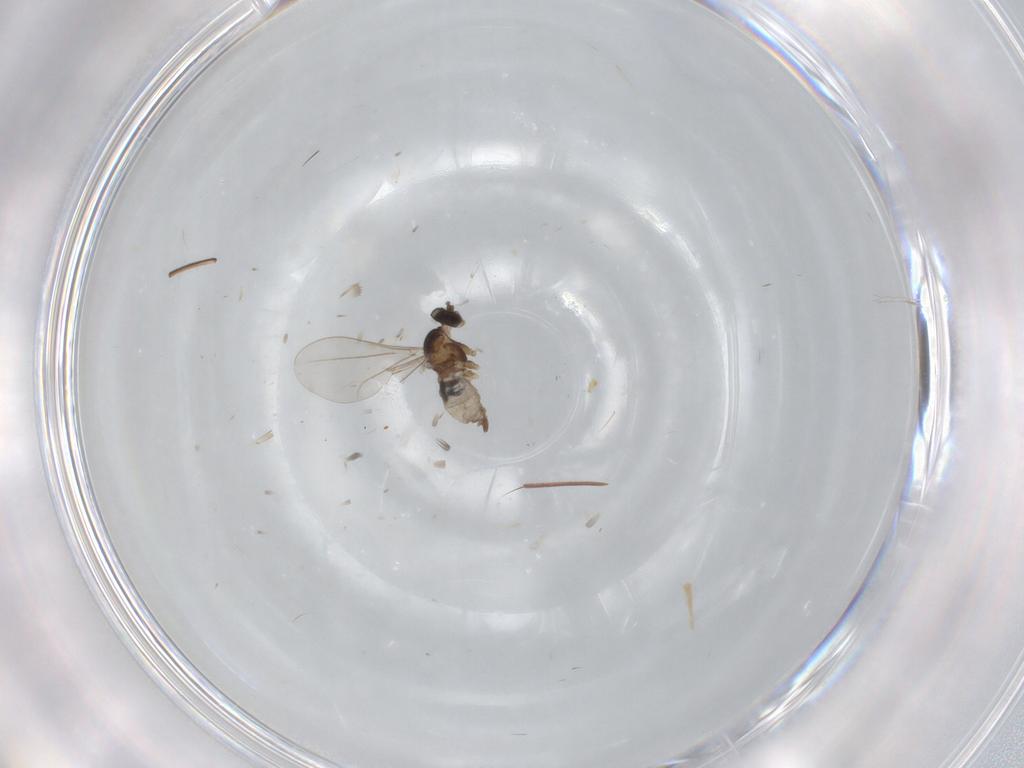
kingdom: Animalia
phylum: Arthropoda
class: Insecta
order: Diptera
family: Cecidomyiidae
